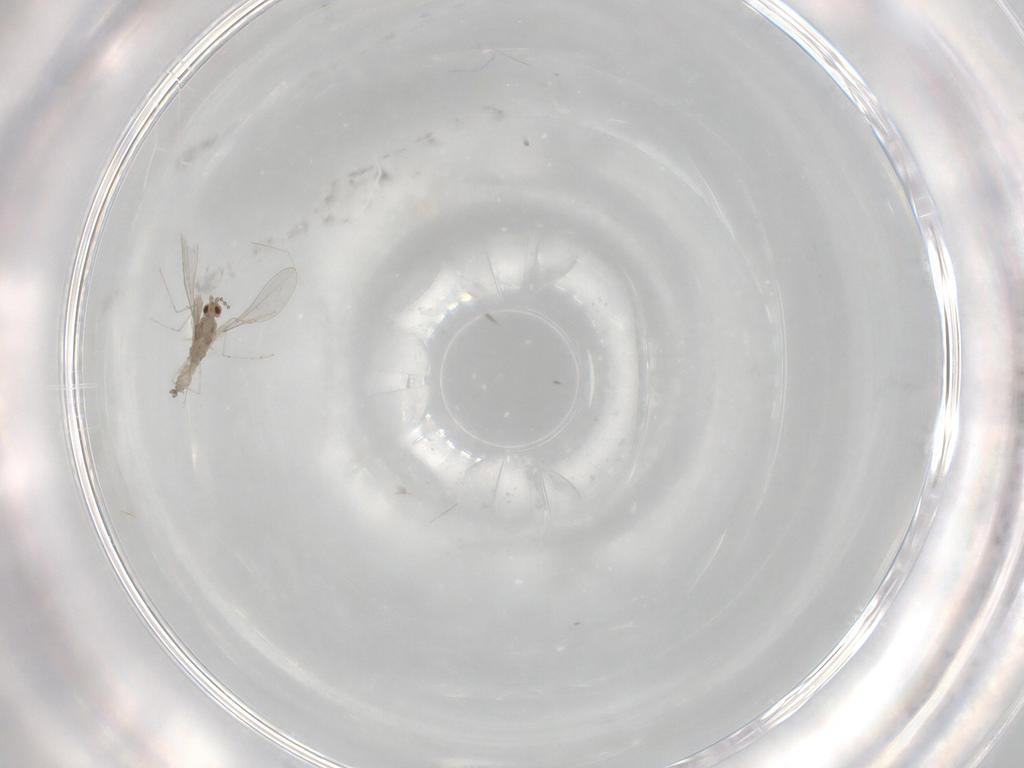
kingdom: Animalia
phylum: Arthropoda
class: Insecta
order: Diptera
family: Cecidomyiidae
